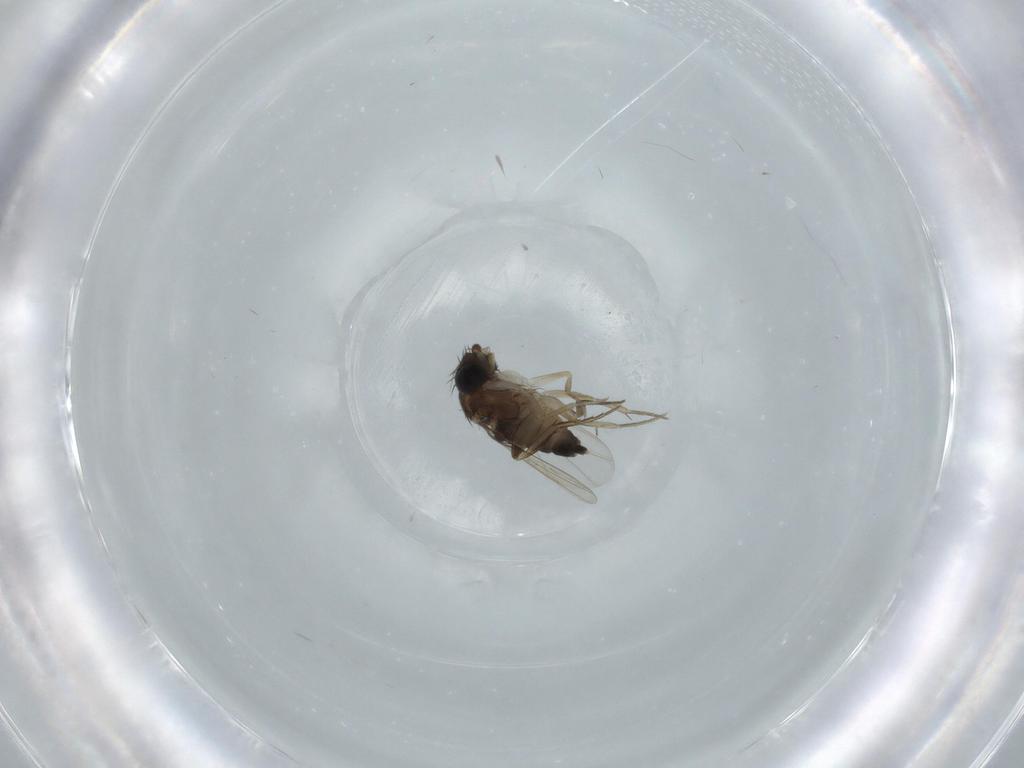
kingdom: Animalia
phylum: Arthropoda
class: Insecta
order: Diptera
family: Phoridae
